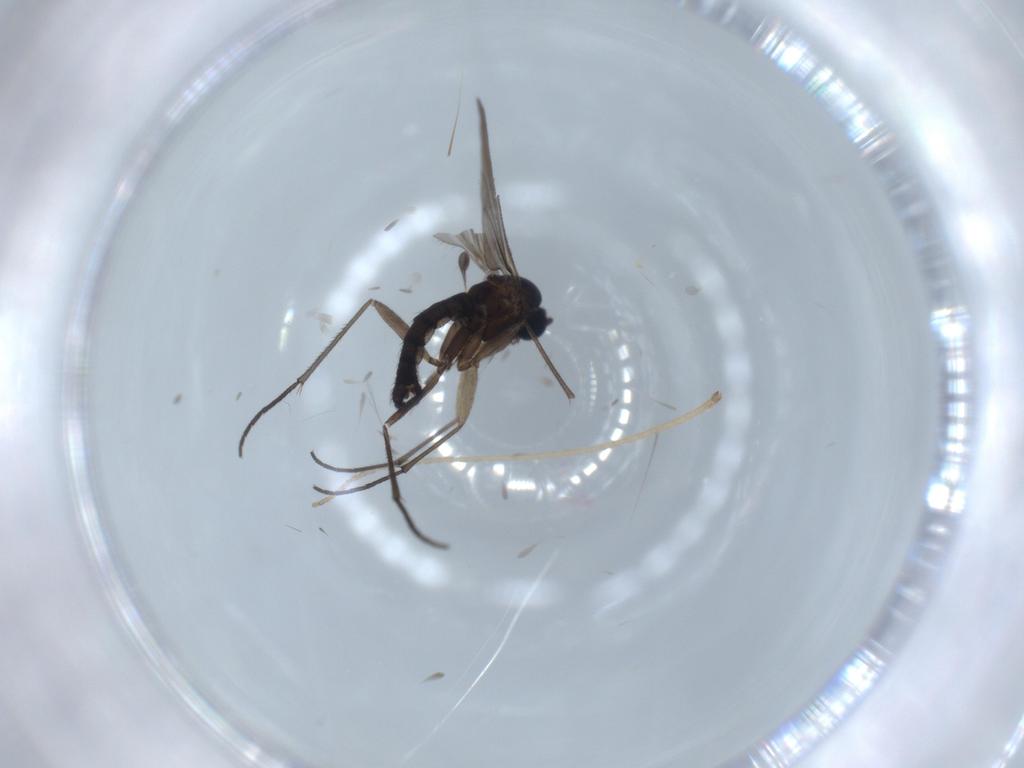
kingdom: Animalia
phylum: Arthropoda
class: Insecta
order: Diptera
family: Sciaridae
